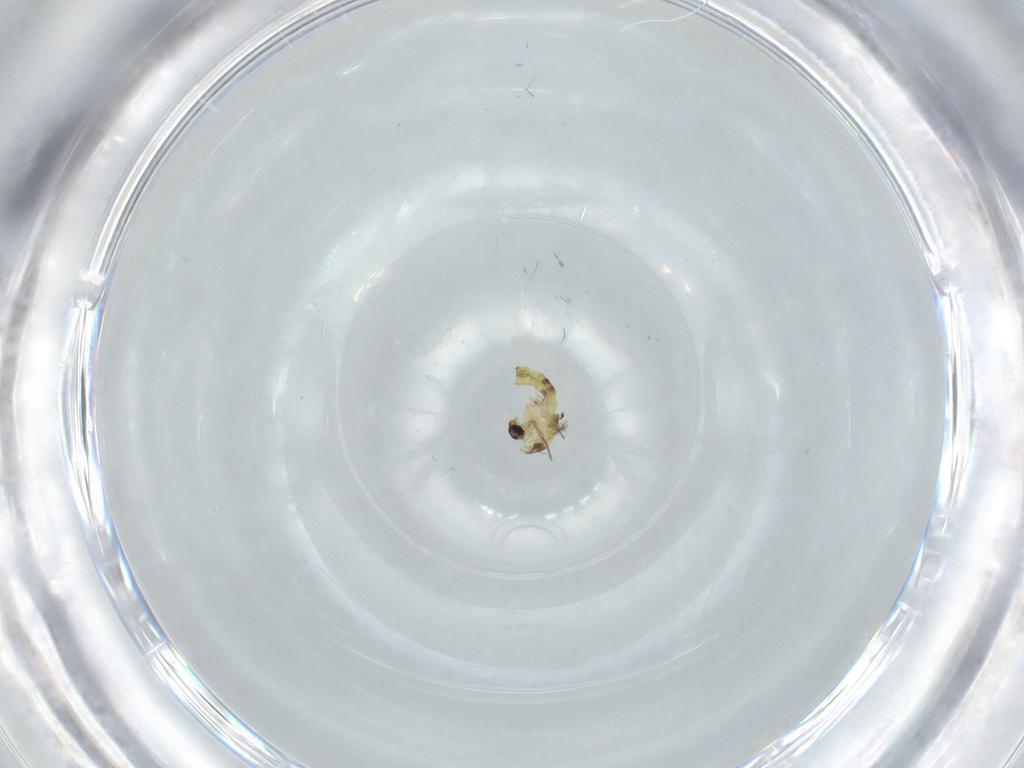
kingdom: Animalia
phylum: Arthropoda
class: Insecta
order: Diptera
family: Chironomidae
